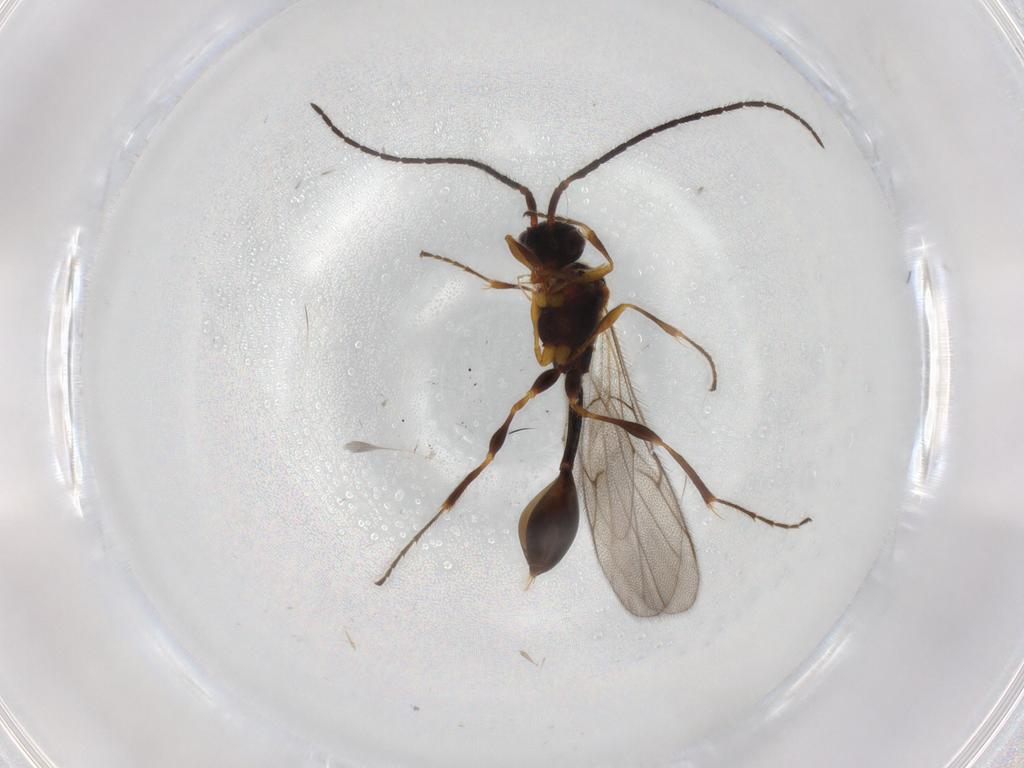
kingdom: Animalia
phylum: Arthropoda
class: Insecta
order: Hymenoptera
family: Diapriidae
